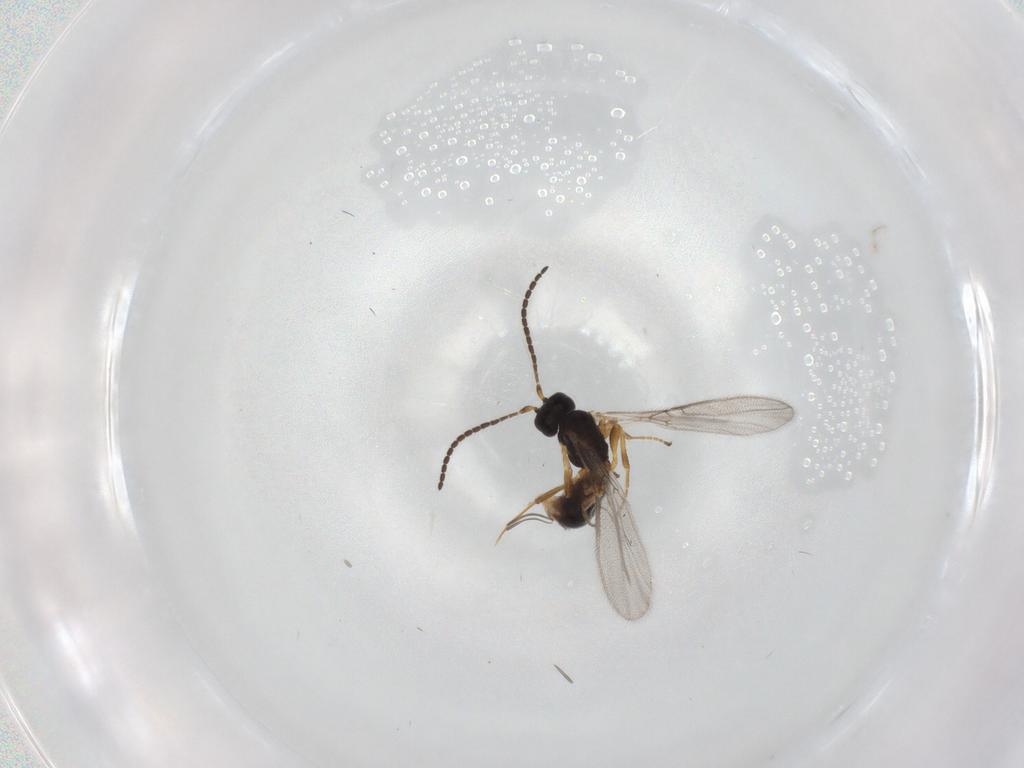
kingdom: Animalia
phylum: Arthropoda
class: Insecta
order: Hymenoptera
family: Braconidae
